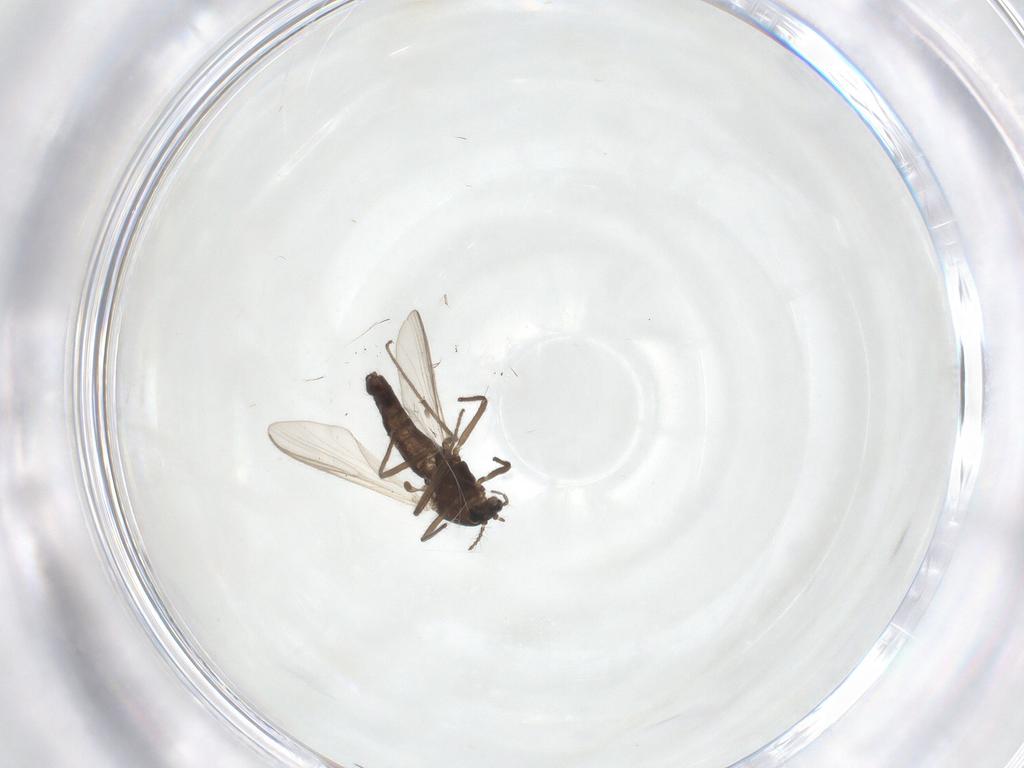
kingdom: Animalia
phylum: Arthropoda
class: Insecta
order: Diptera
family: Chironomidae
